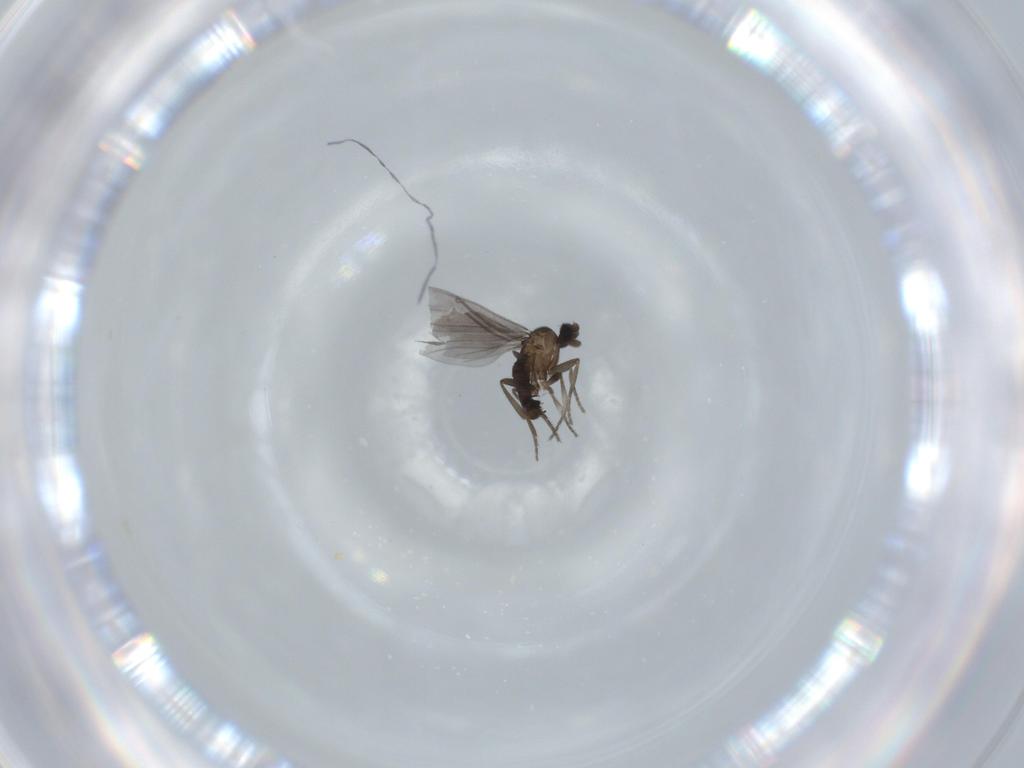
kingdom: Animalia
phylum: Arthropoda
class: Insecta
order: Diptera
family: Phoridae
